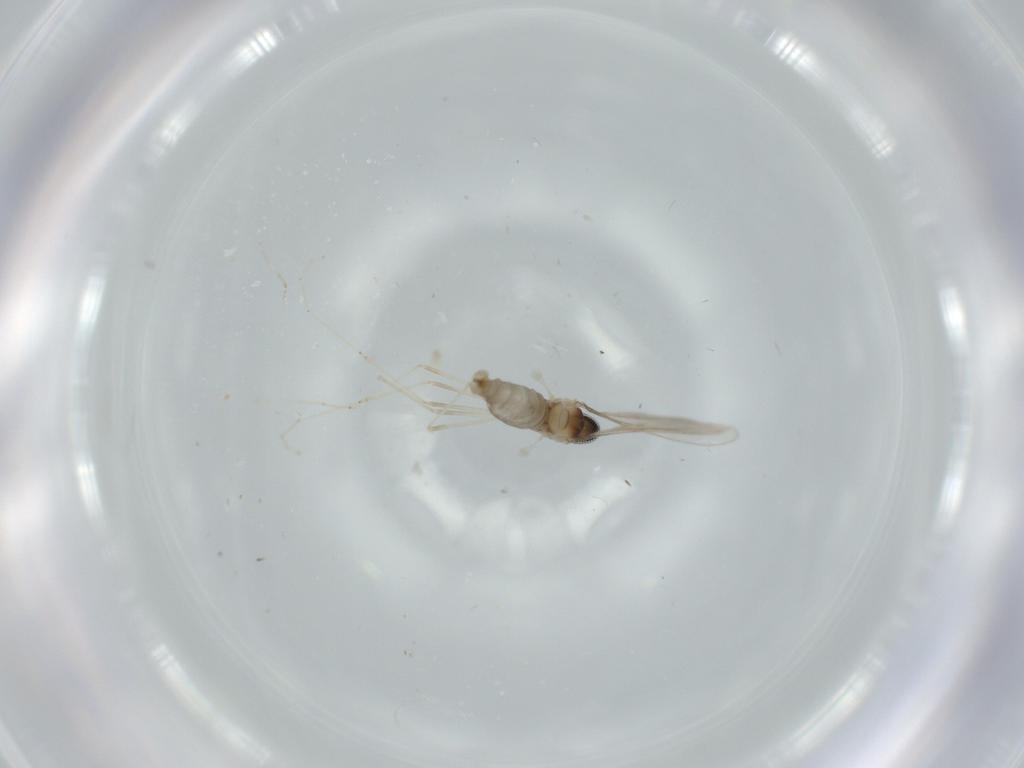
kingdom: Animalia
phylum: Arthropoda
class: Insecta
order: Diptera
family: Cecidomyiidae
